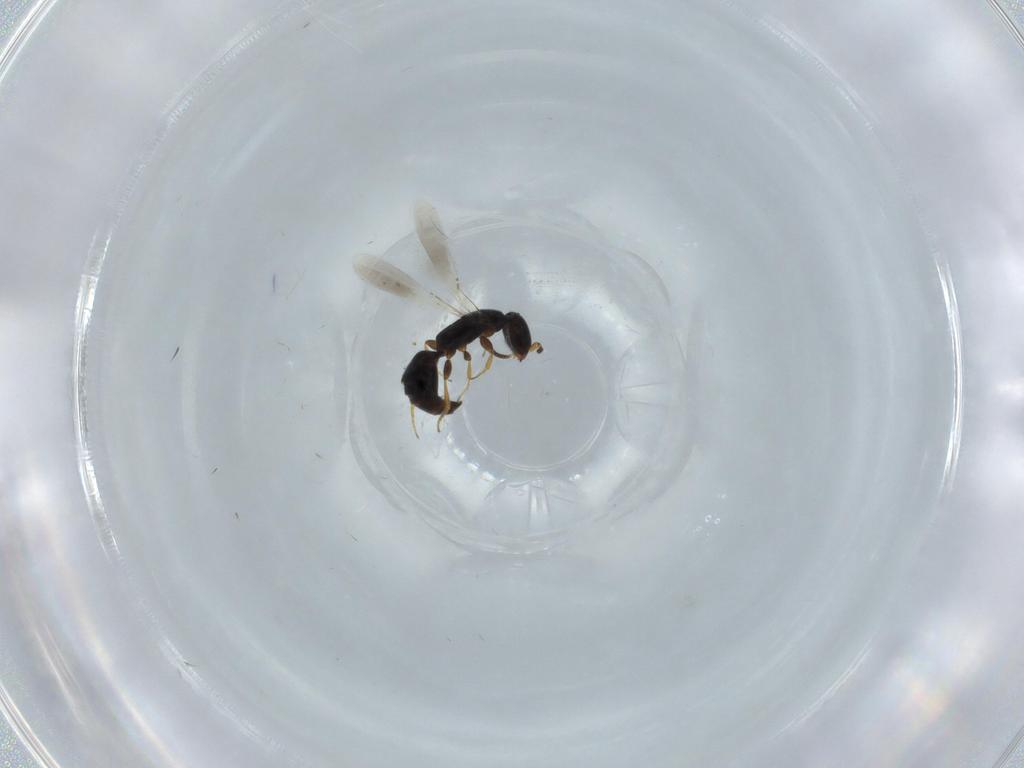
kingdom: Animalia
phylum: Arthropoda
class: Insecta
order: Hymenoptera
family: Bethylidae
